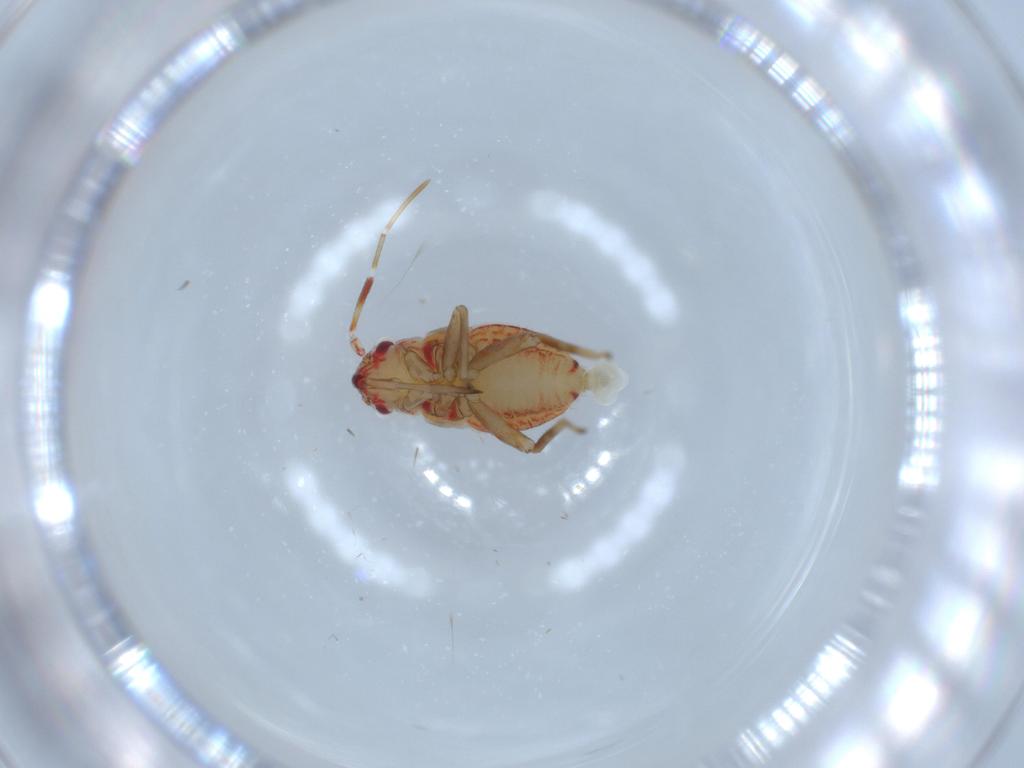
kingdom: Animalia
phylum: Arthropoda
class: Insecta
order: Hemiptera
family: Miridae
